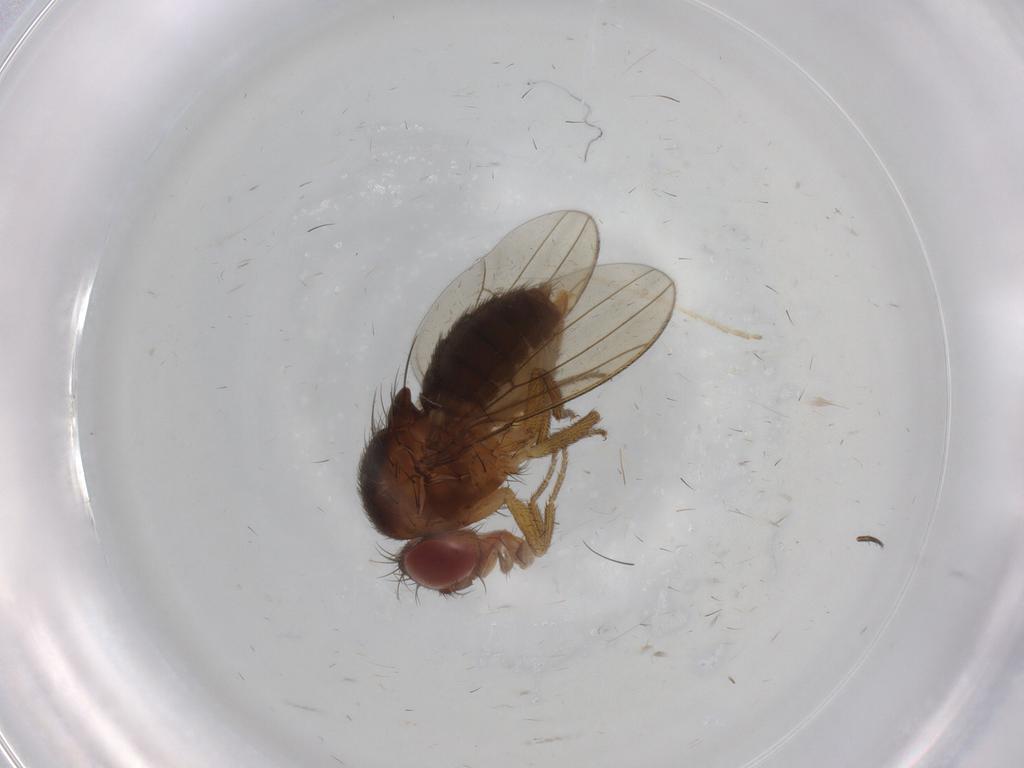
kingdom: Animalia
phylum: Arthropoda
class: Insecta
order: Diptera
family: Drosophilidae
